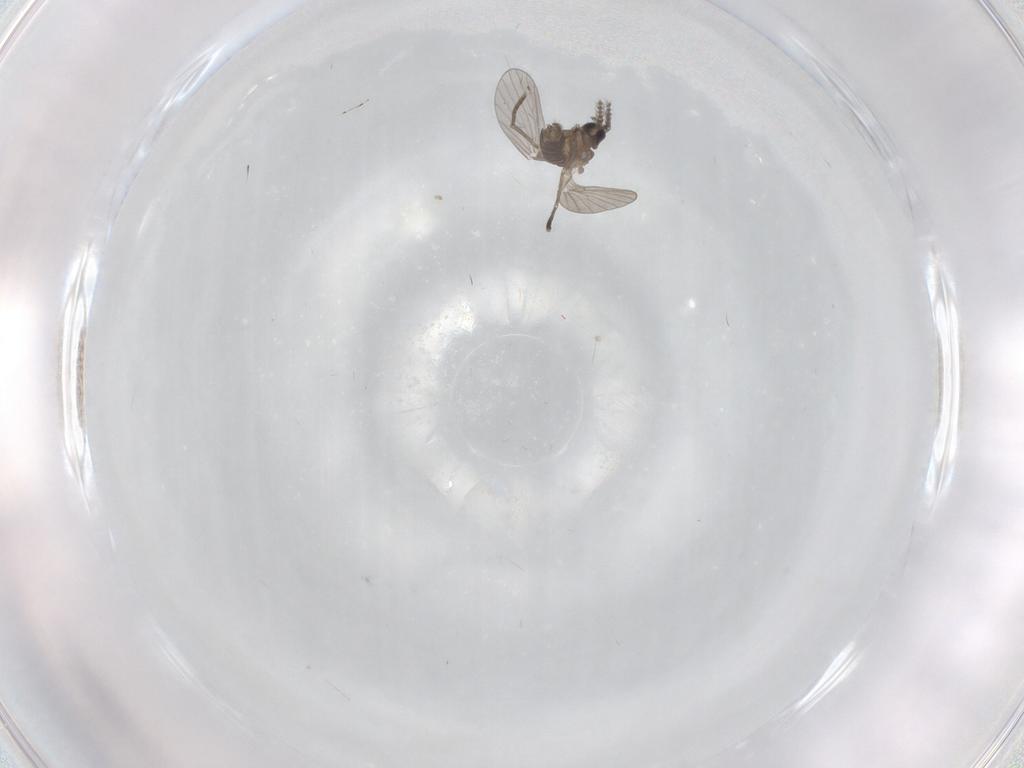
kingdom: Animalia
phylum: Arthropoda
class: Insecta
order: Diptera
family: Psychodidae
